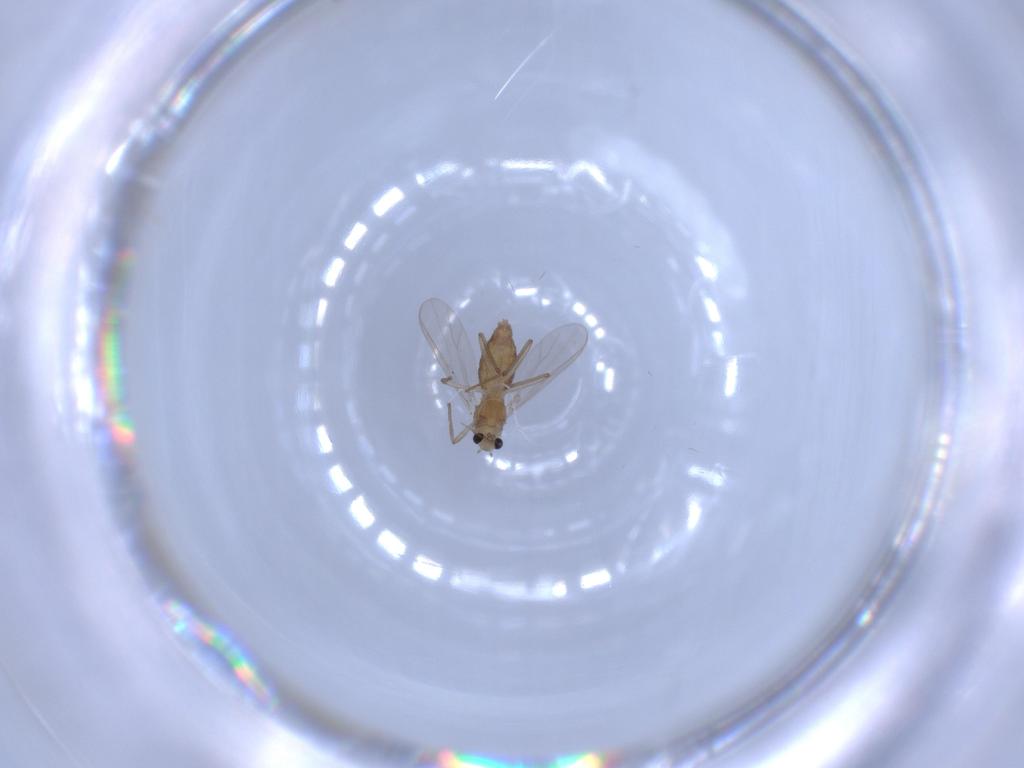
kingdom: Animalia
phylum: Arthropoda
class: Insecta
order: Diptera
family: Chironomidae
